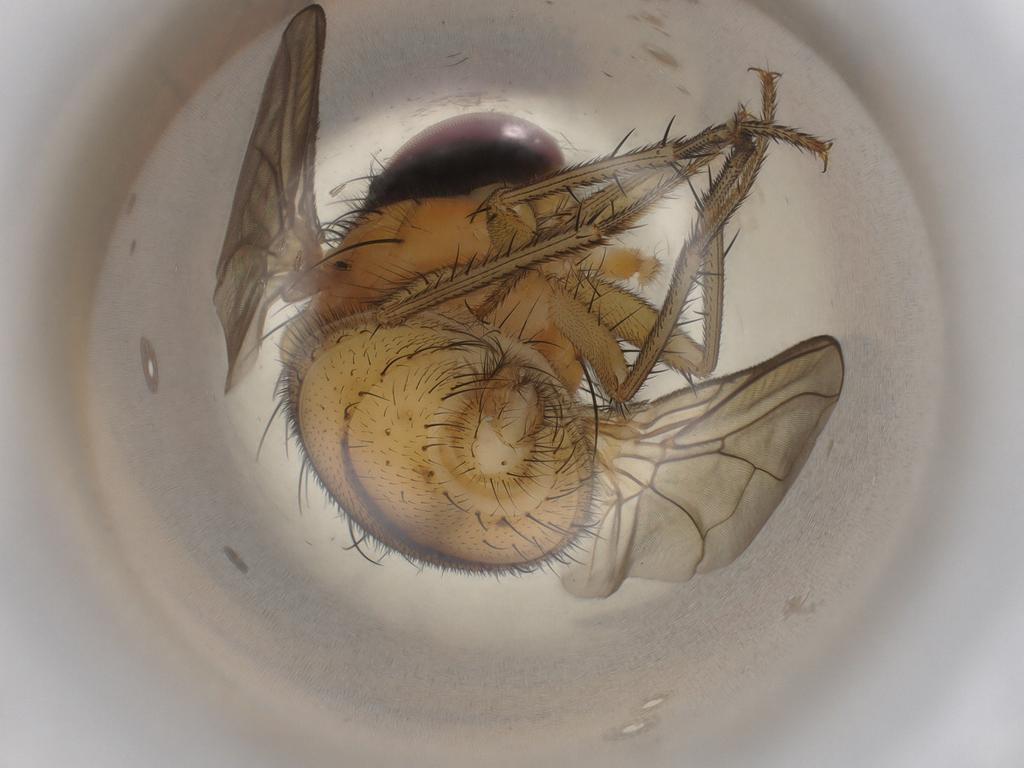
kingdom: Animalia
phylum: Arthropoda
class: Insecta
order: Diptera
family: Calliphoridae
